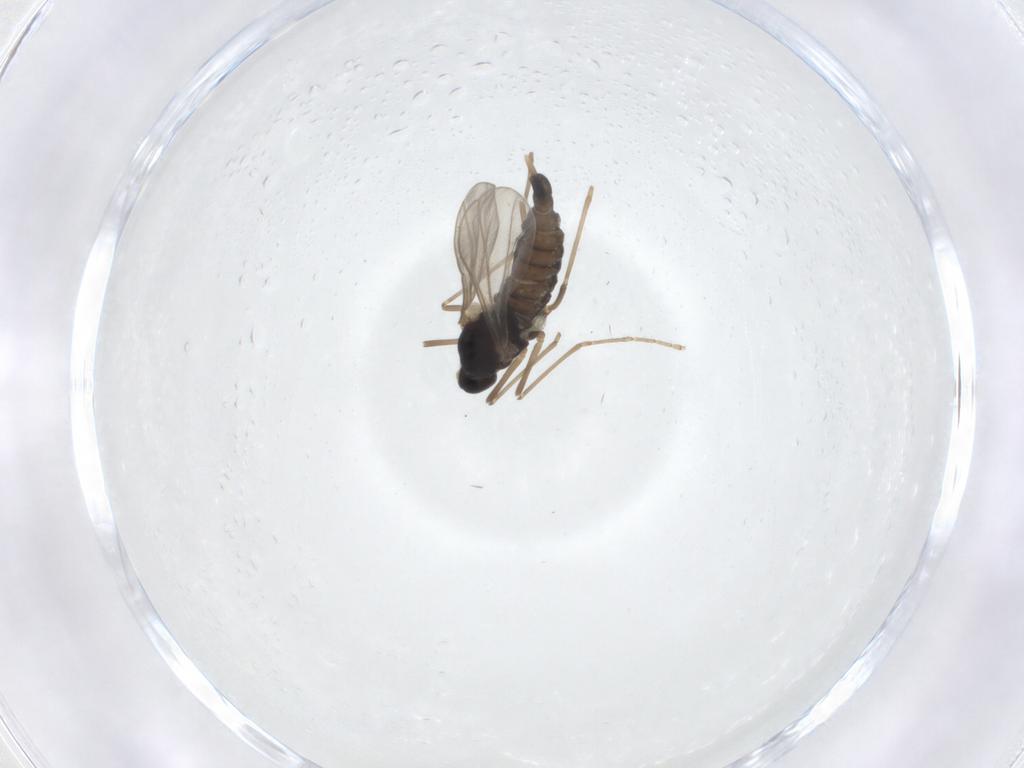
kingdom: Animalia
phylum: Arthropoda
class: Insecta
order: Diptera
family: Cecidomyiidae
